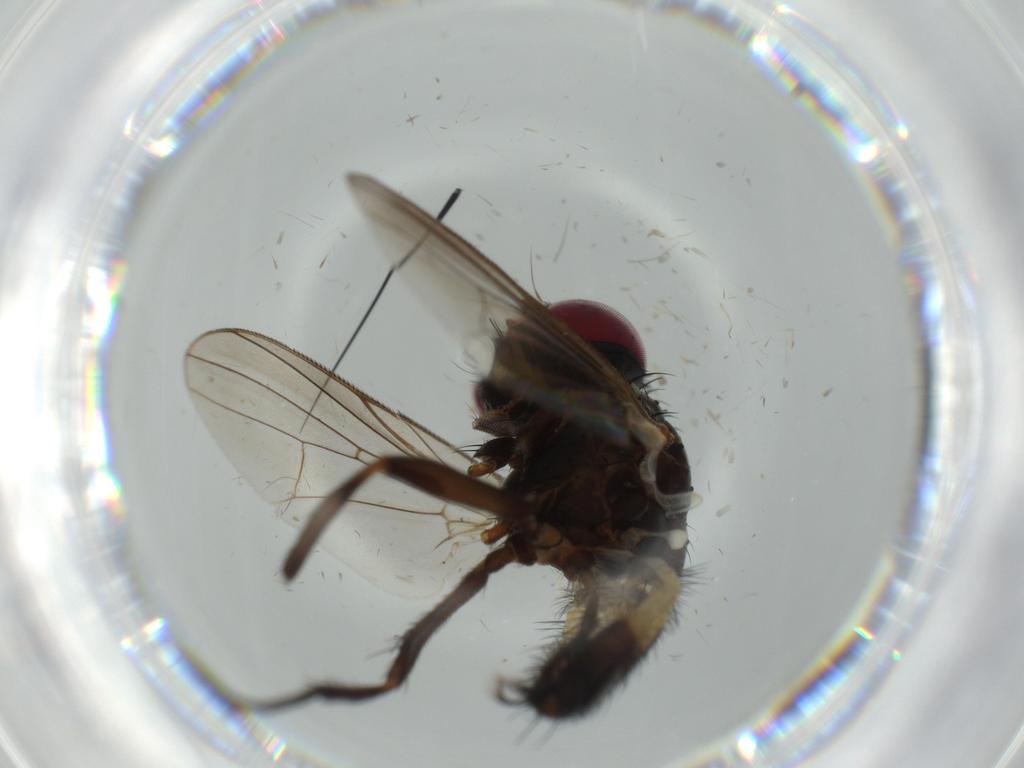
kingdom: Animalia
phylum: Arthropoda
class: Insecta
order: Diptera
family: Fannia
